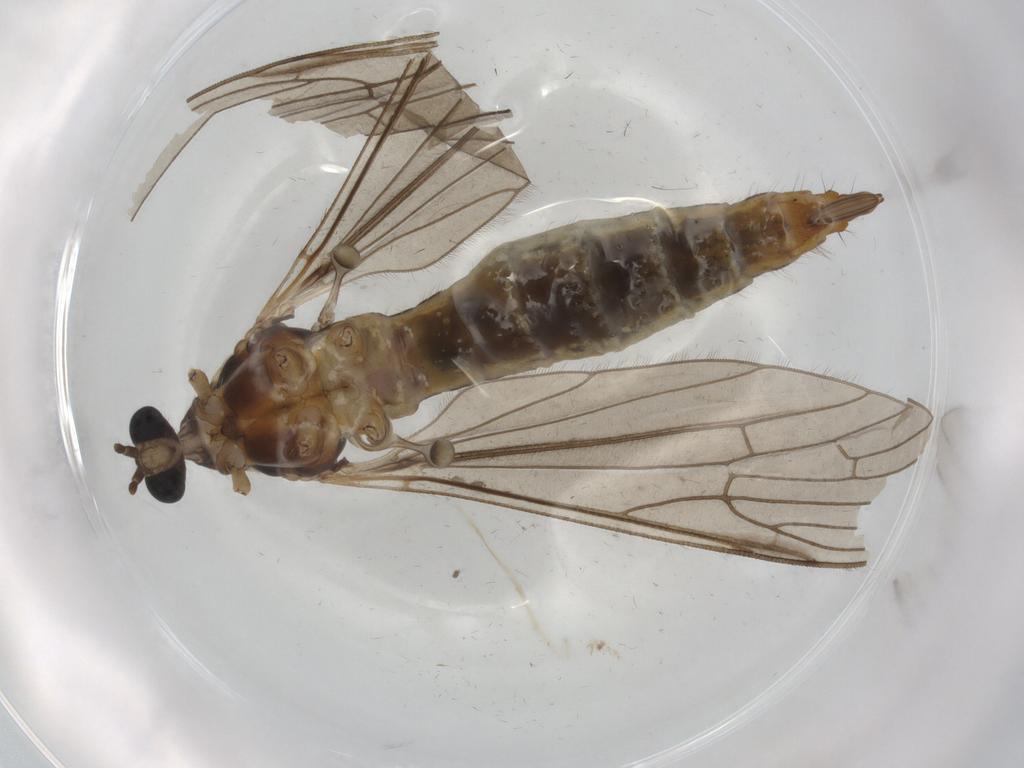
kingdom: Animalia
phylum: Arthropoda
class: Insecta
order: Diptera
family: Limoniidae
